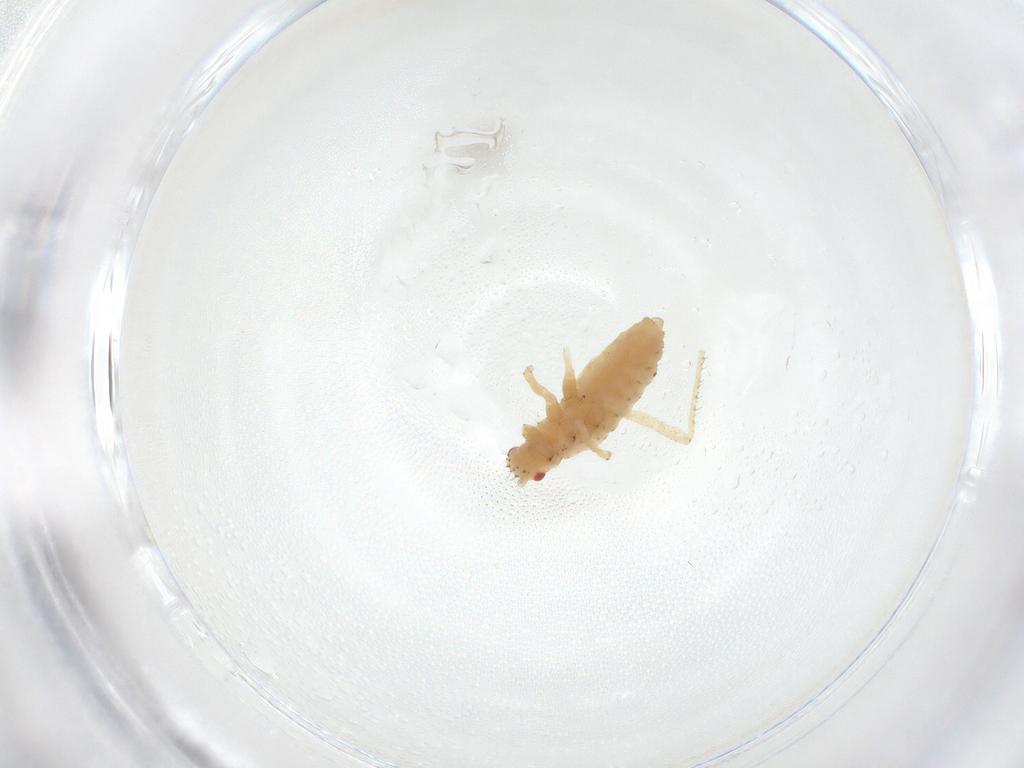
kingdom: Animalia
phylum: Arthropoda
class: Insecta
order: Hemiptera
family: Aphididae
